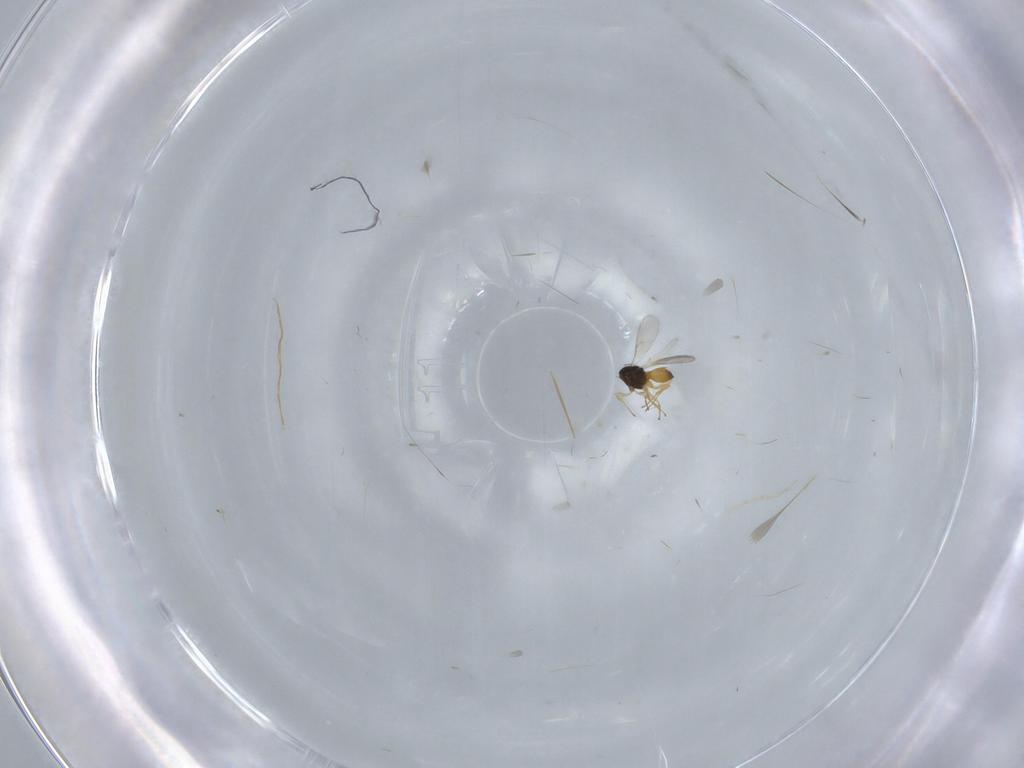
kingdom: Animalia
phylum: Arthropoda
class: Insecta
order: Hymenoptera
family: Scelionidae
